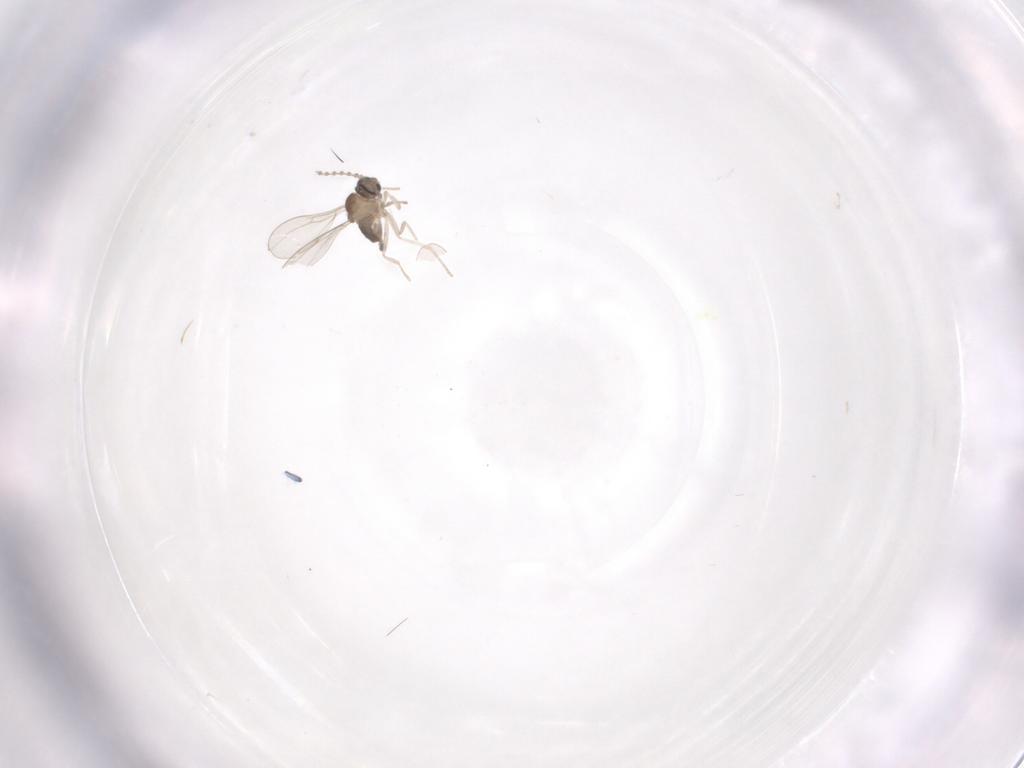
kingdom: Animalia
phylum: Arthropoda
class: Insecta
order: Diptera
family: Cecidomyiidae
